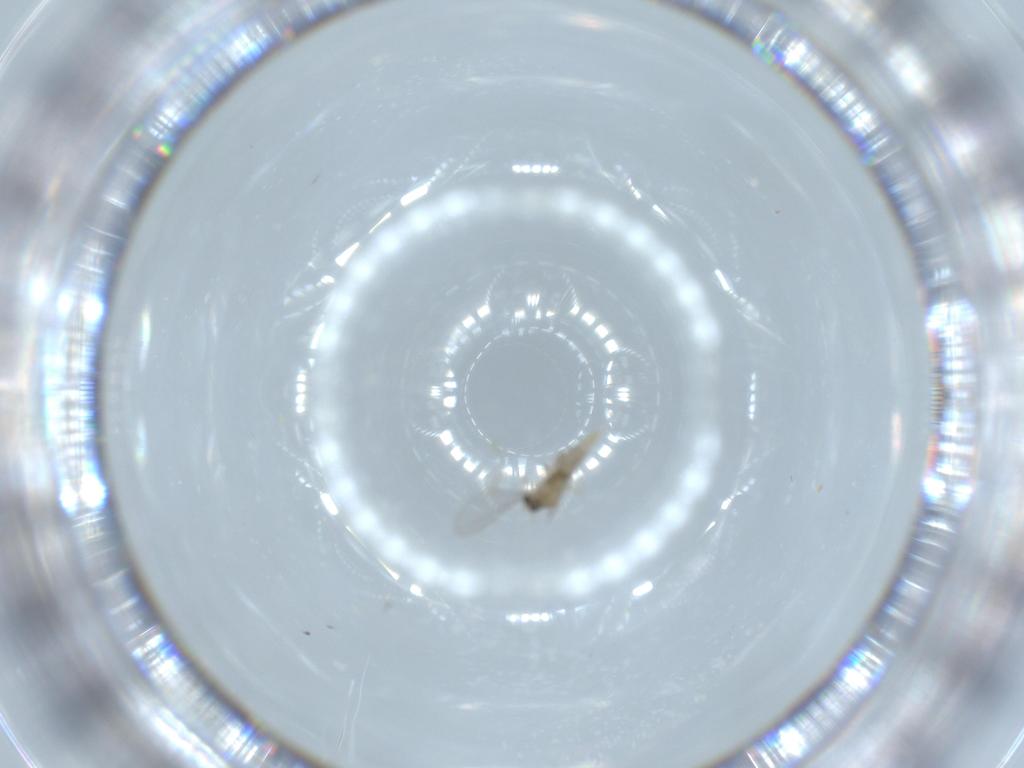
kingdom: Animalia
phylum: Arthropoda
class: Insecta
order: Diptera
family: Cecidomyiidae
